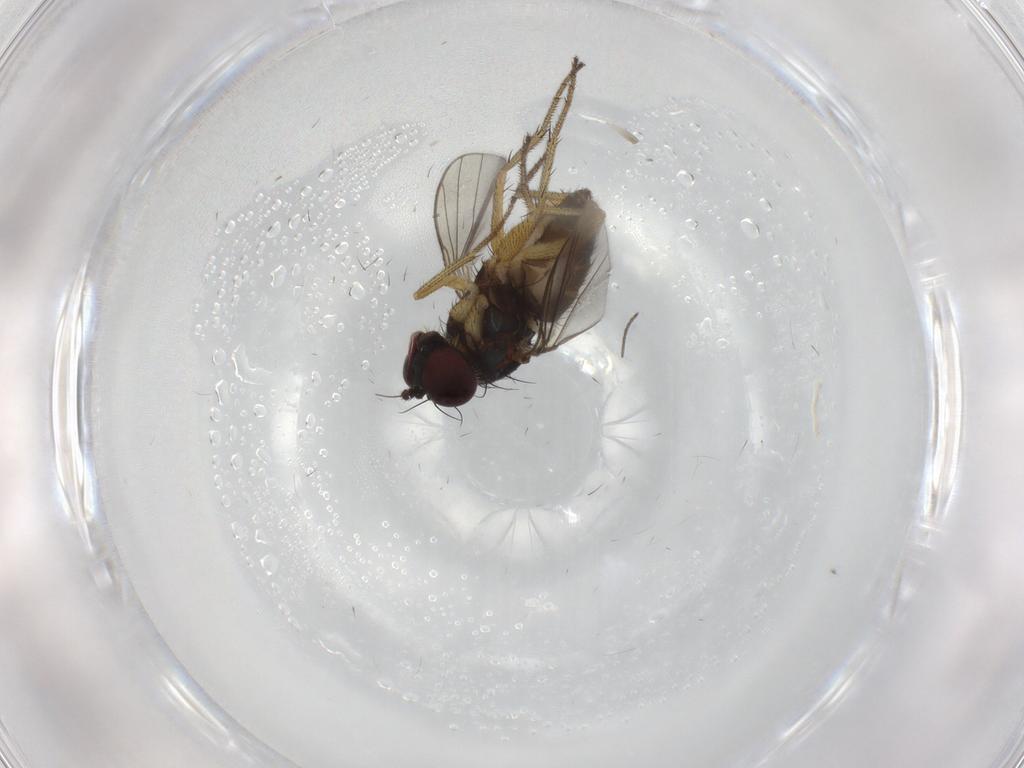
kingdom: Animalia
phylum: Arthropoda
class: Insecta
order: Diptera
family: Dolichopodidae
